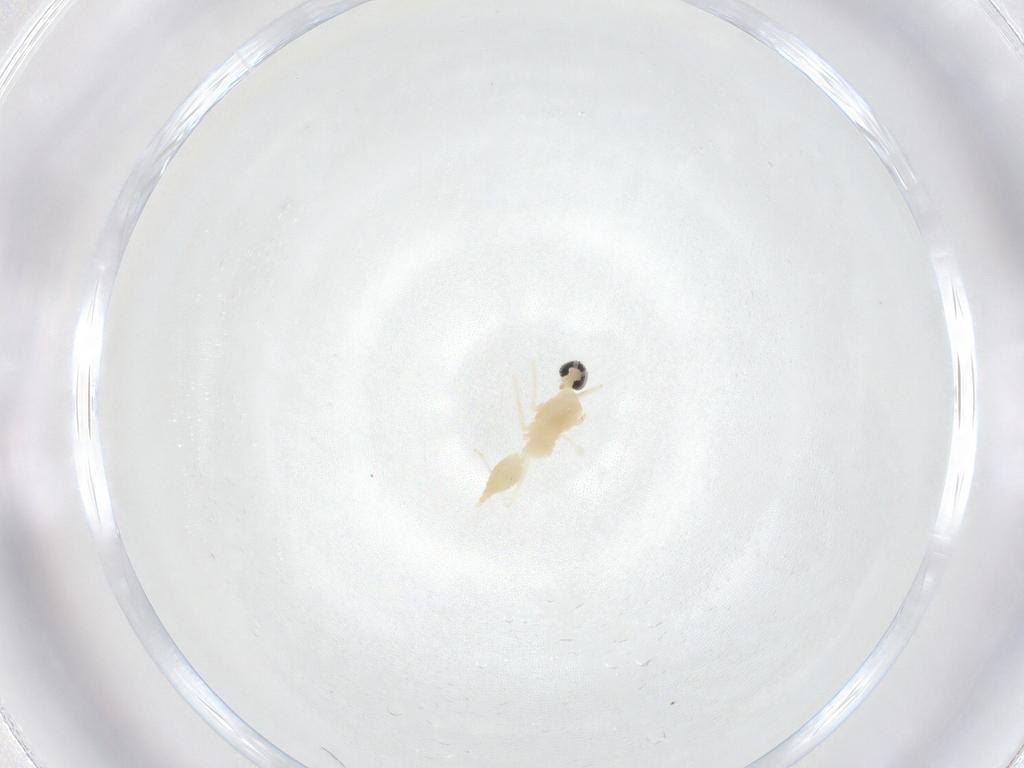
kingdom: Animalia
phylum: Arthropoda
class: Insecta
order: Diptera
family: Cecidomyiidae
